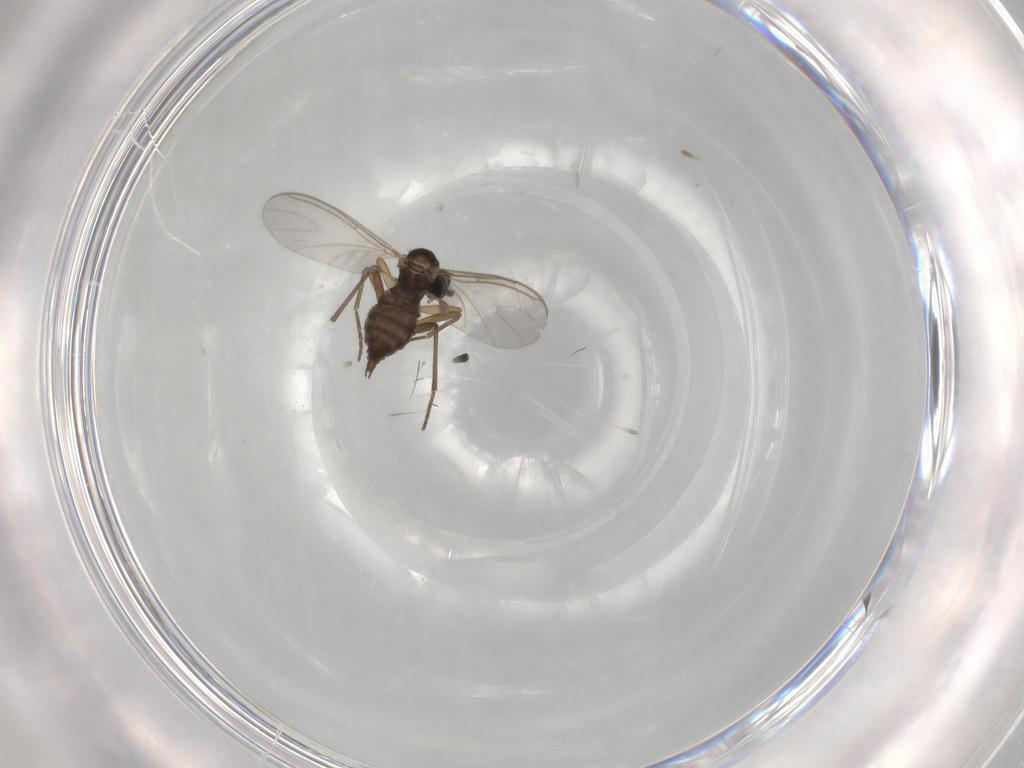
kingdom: Animalia
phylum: Arthropoda
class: Insecta
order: Diptera
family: Sciaridae
